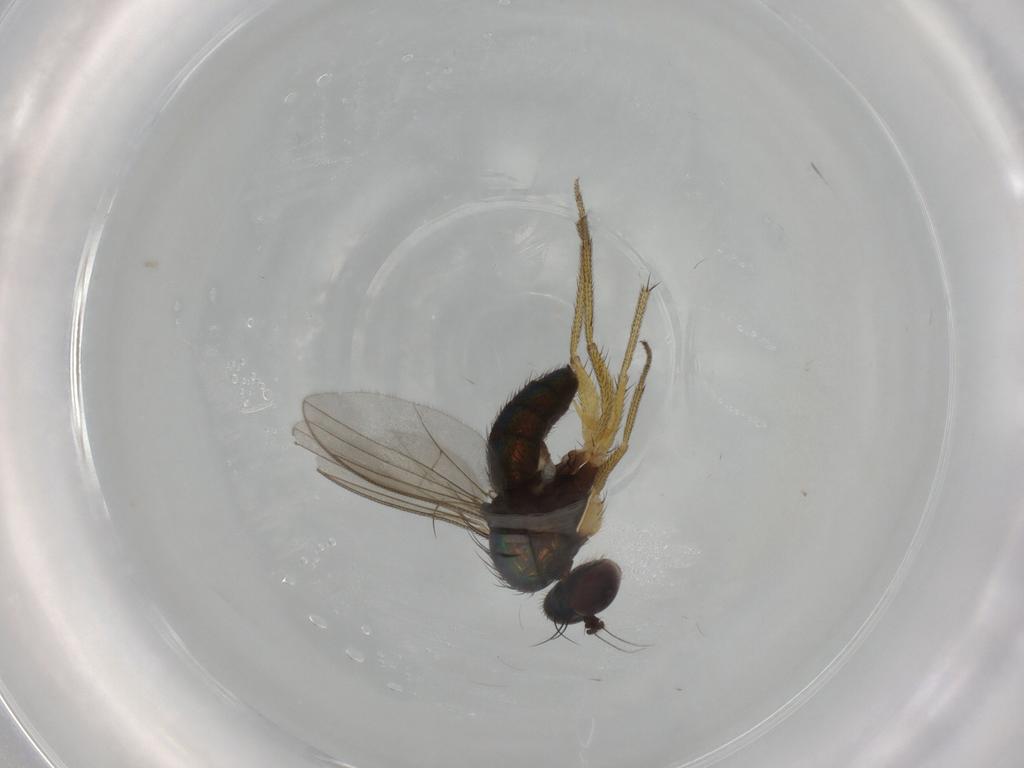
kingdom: Animalia
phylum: Arthropoda
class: Insecta
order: Diptera
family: Dolichopodidae
